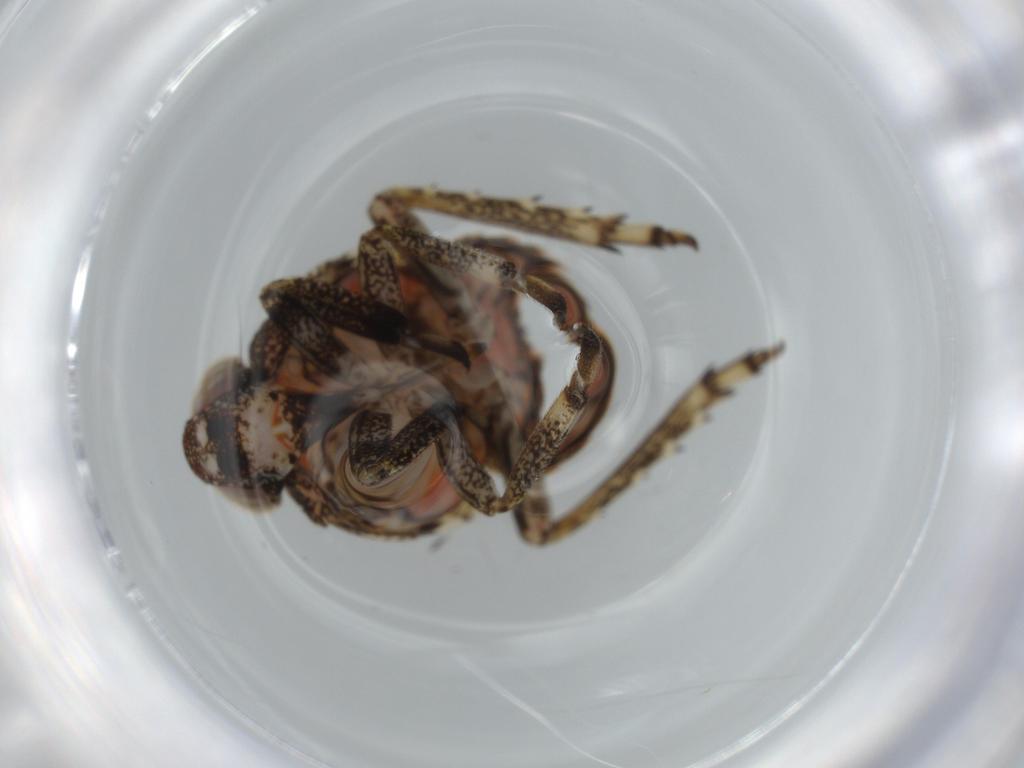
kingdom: Animalia
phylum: Arthropoda
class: Insecta
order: Hemiptera
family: Issidae
